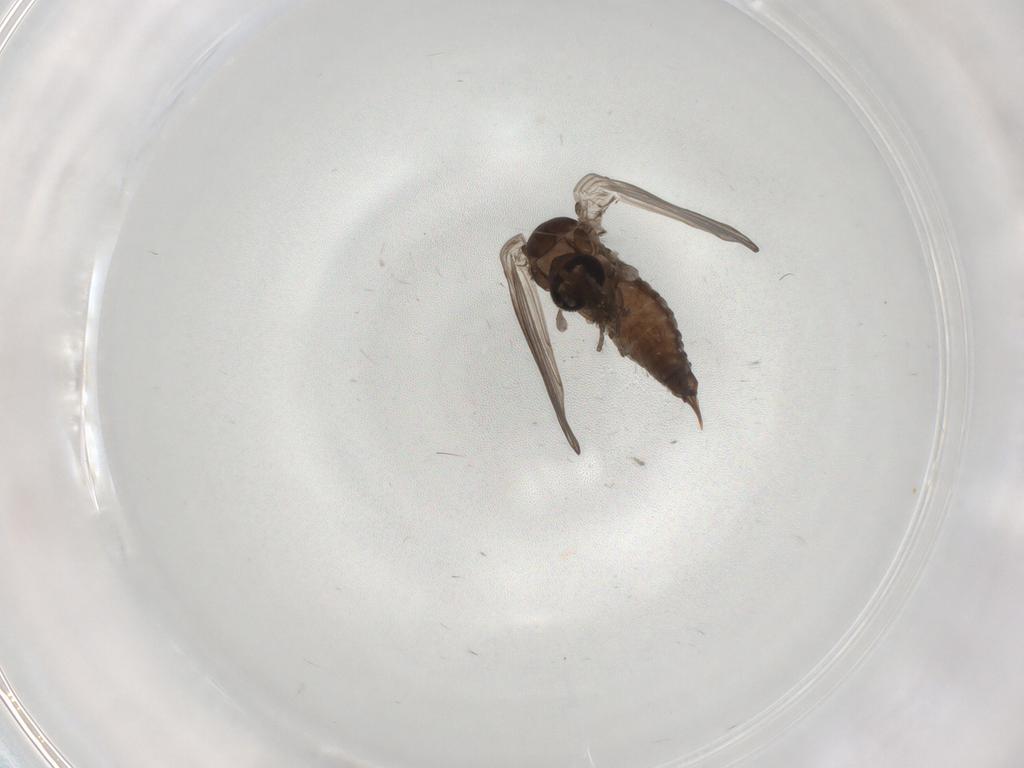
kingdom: Animalia
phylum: Arthropoda
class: Insecta
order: Diptera
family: Psychodidae
